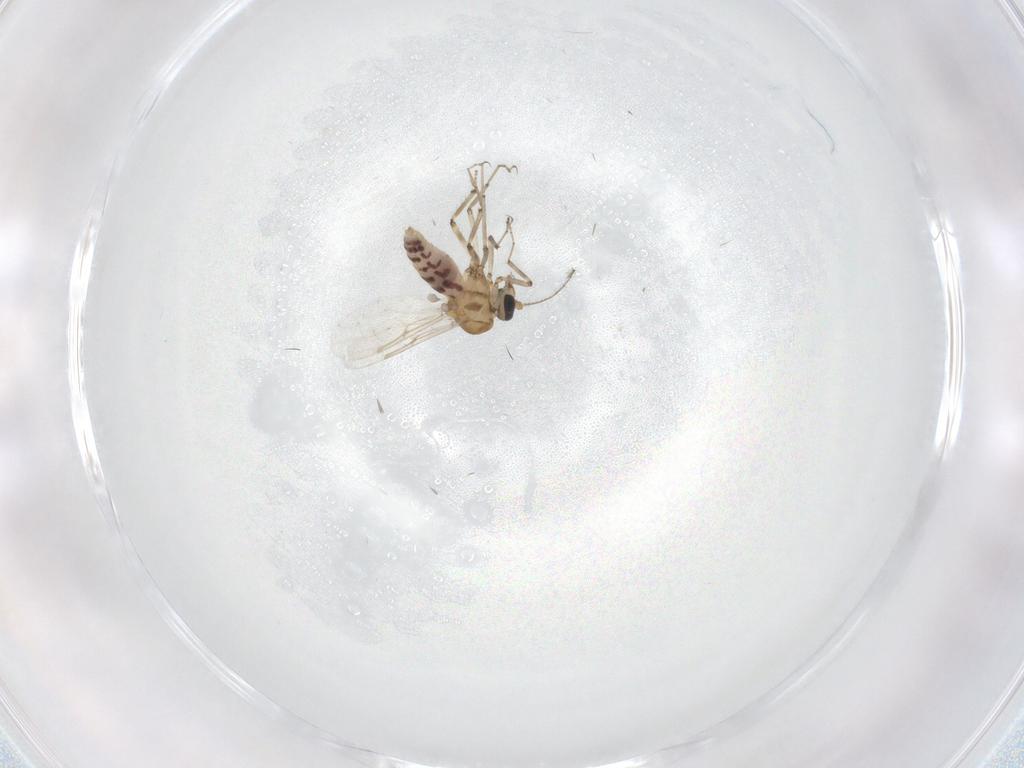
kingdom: Animalia
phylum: Arthropoda
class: Insecta
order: Diptera
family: Ceratopogonidae
